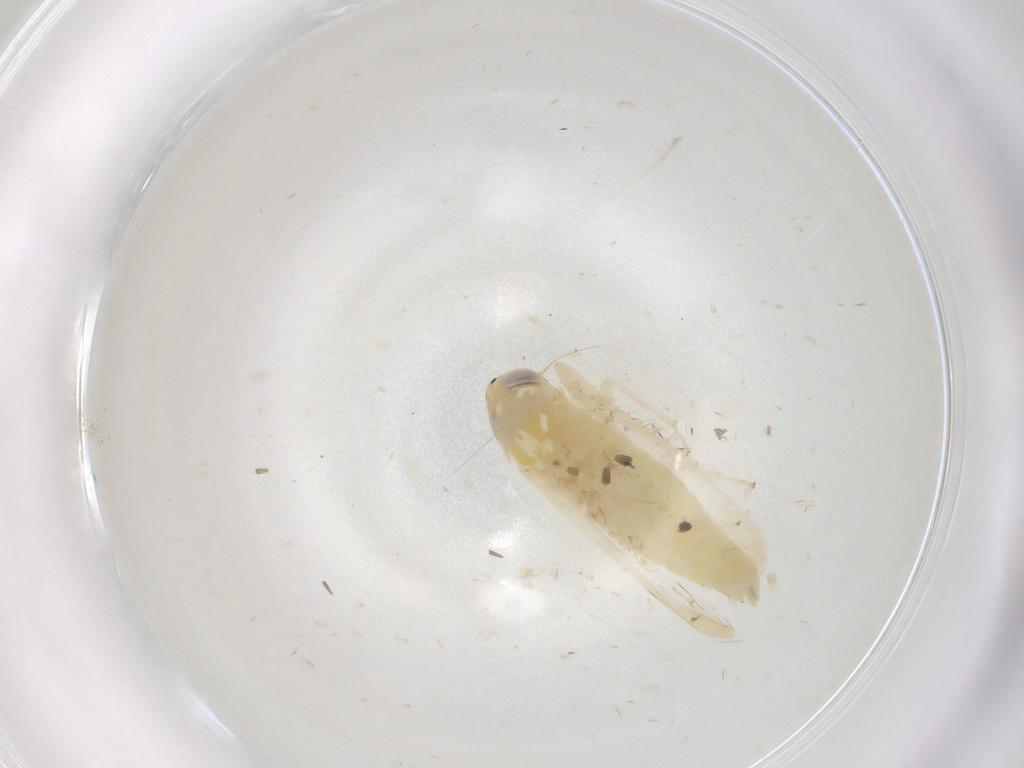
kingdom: Animalia
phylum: Arthropoda
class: Insecta
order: Hemiptera
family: Cicadellidae
